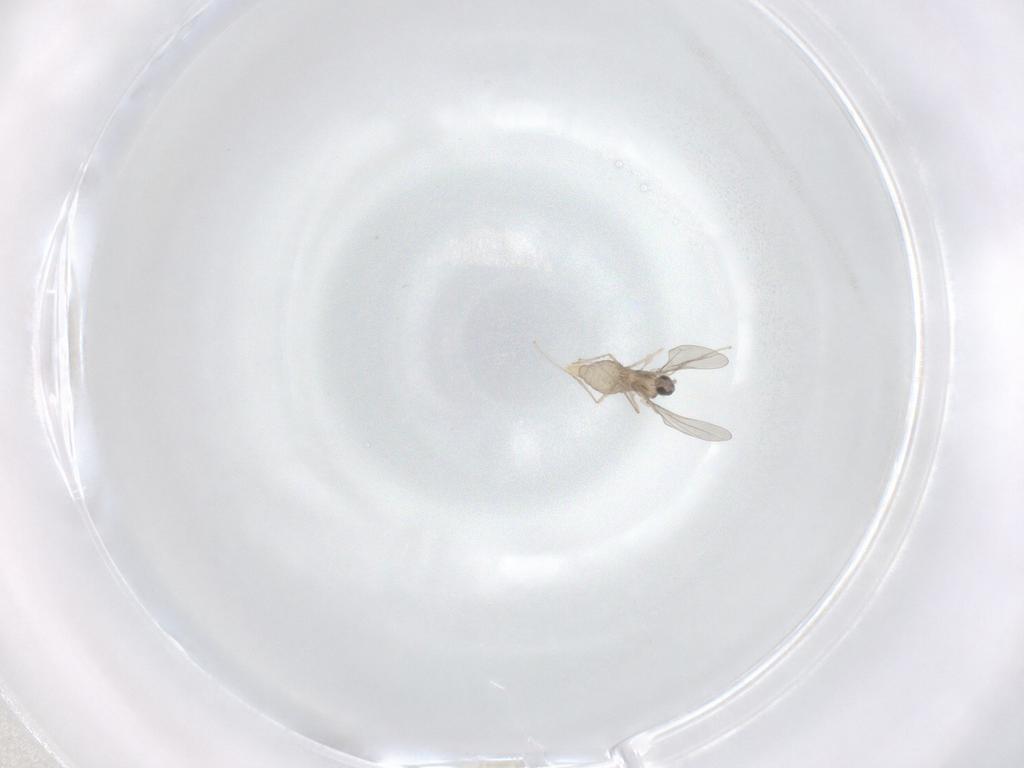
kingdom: Animalia
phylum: Arthropoda
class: Insecta
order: Diptera
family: Cecidomyiidae
